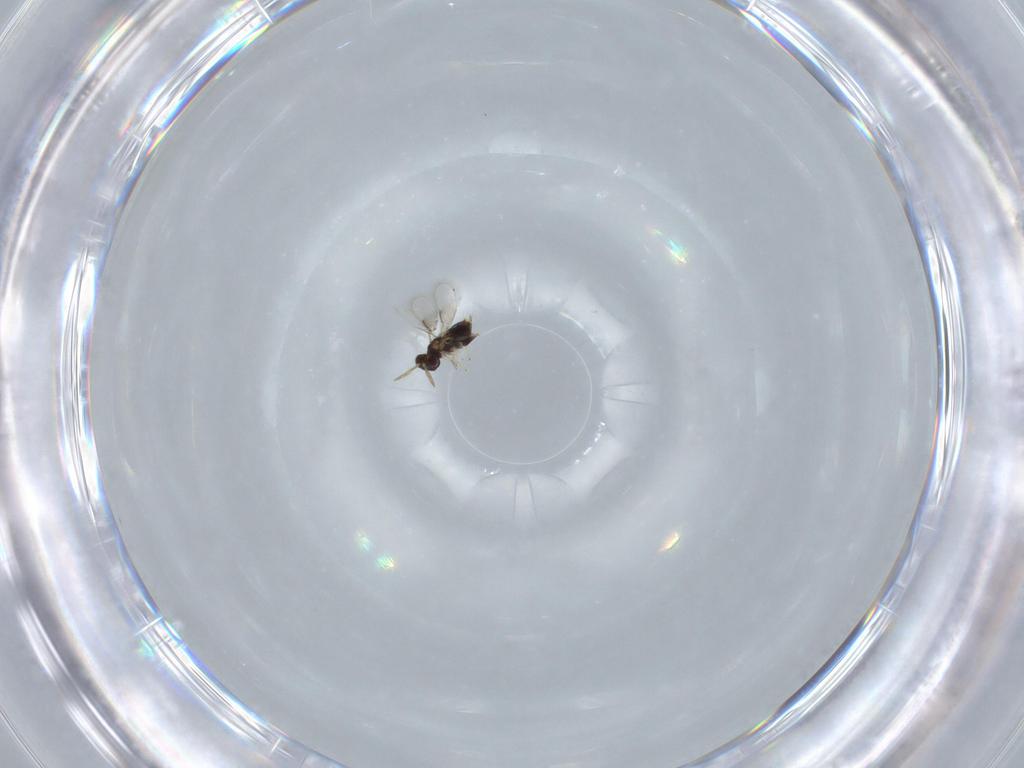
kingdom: Animalia
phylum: Arthropoda
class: Insecta
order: Hymenoptera
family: Aphelinidae
